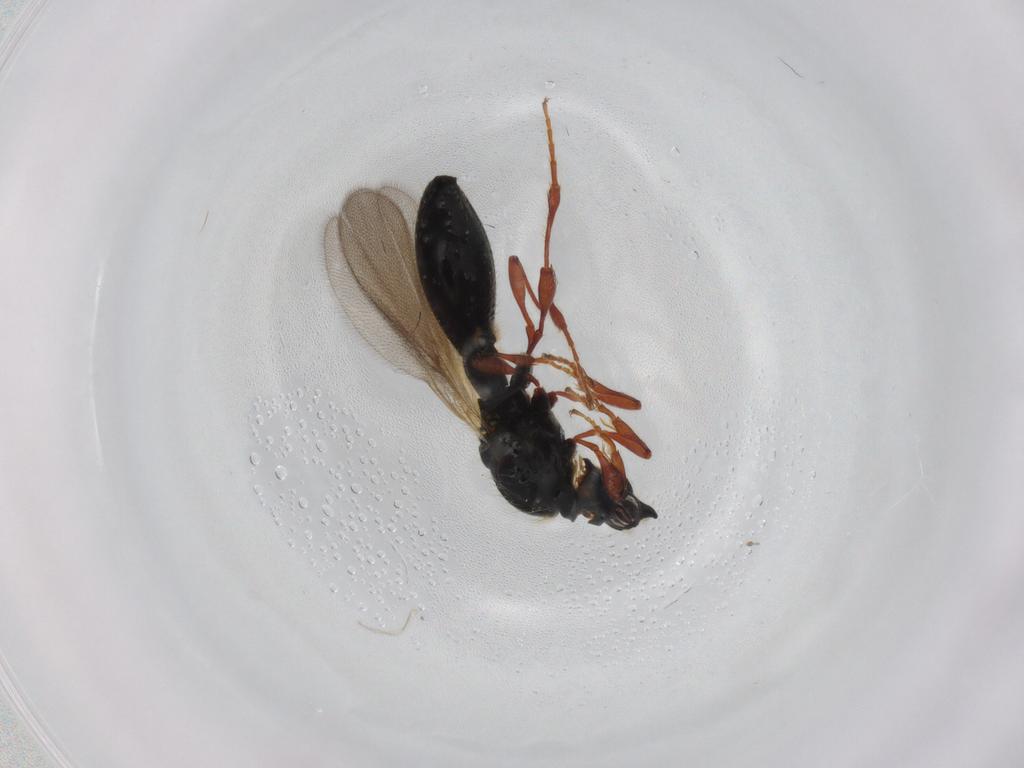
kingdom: Animalia
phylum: Arthropoda
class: Insecta
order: Hymenoptera
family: Diapriidae
